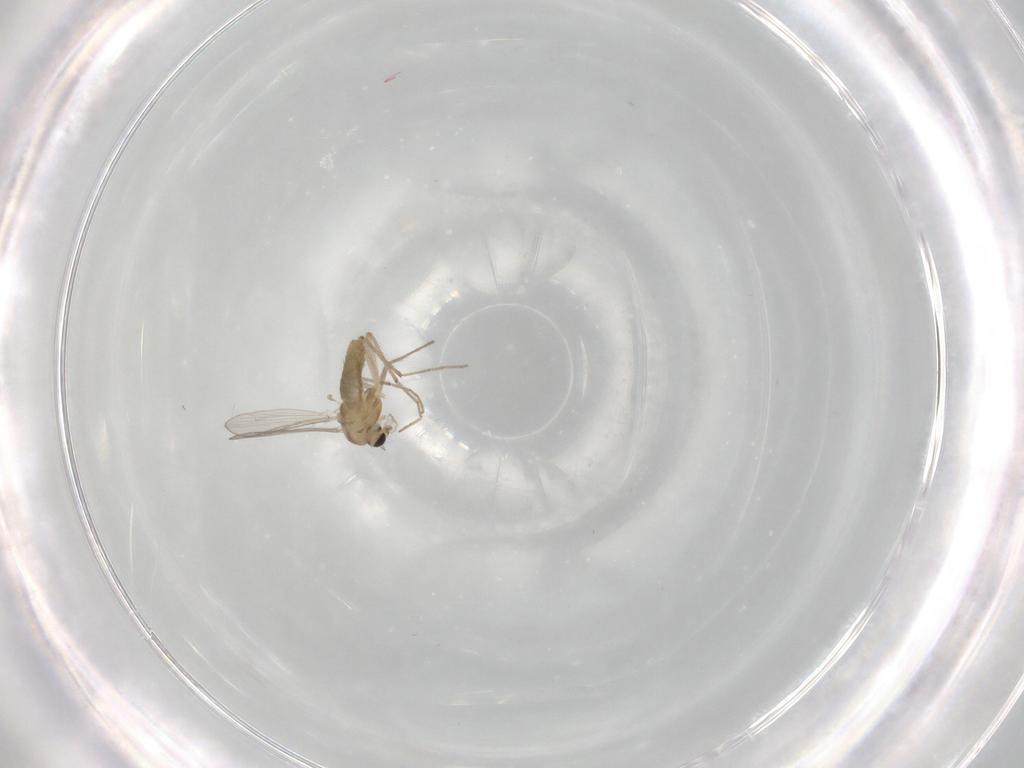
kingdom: Animalia
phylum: Arthropoda
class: Insecta
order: Diptera
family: Chironomidae
